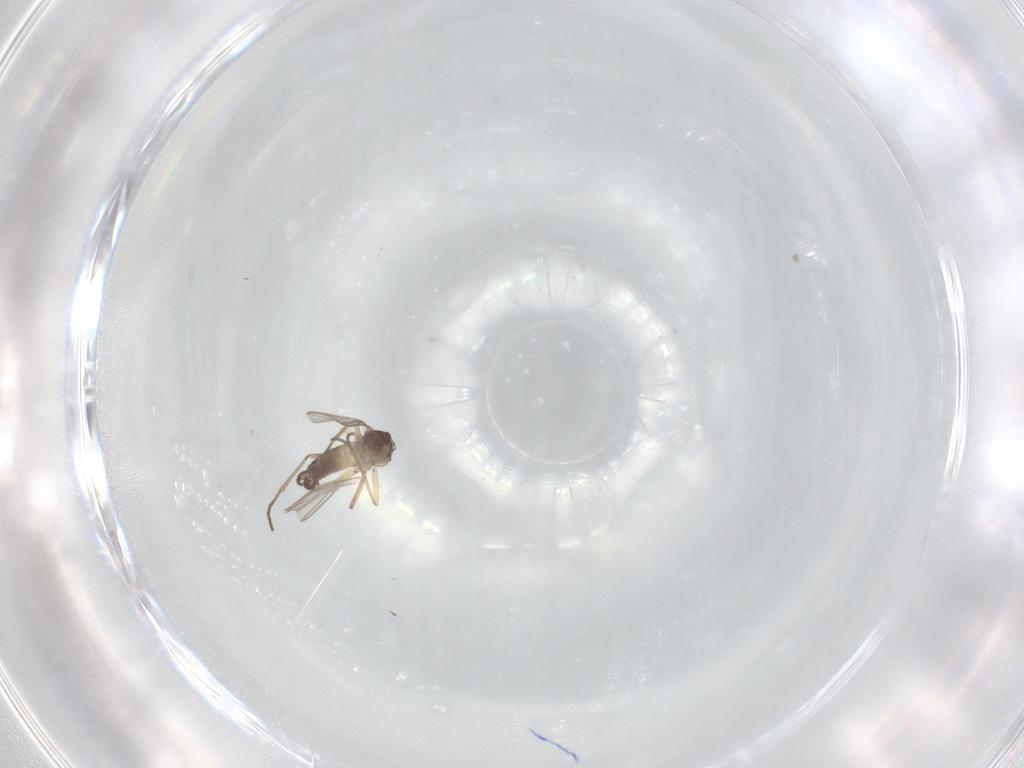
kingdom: Animalia
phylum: Arthropoda
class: Insecta
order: Diptera
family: Sciaridae
